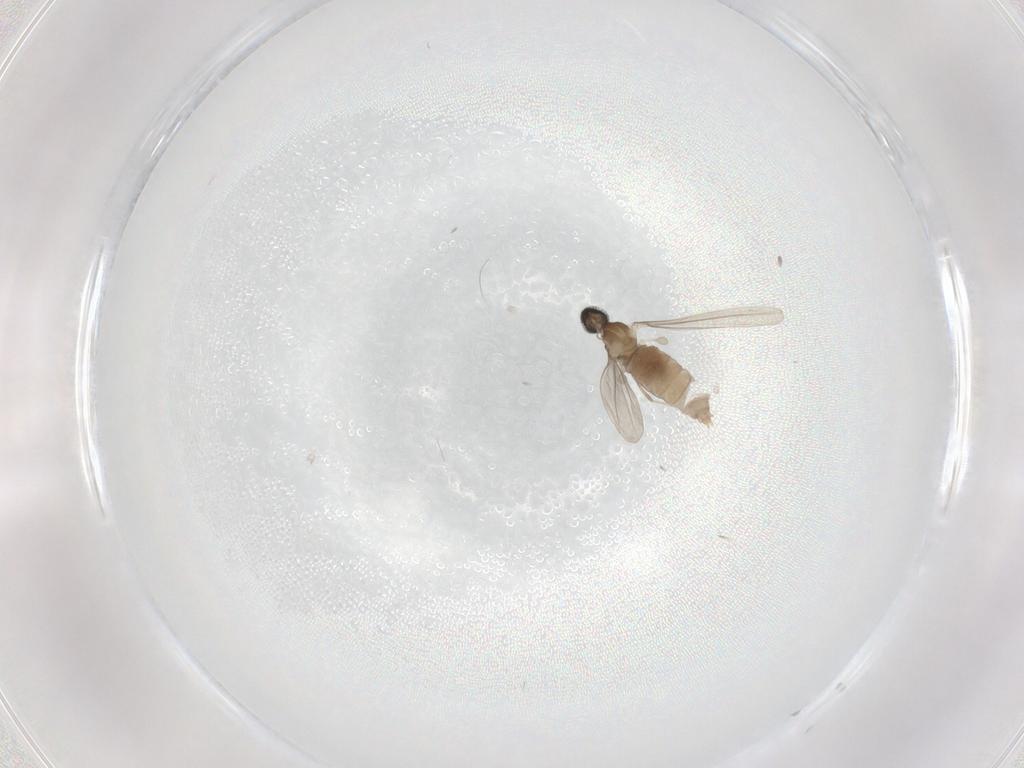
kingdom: Animalia
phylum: Arthropoda
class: Insecta
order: Diptera
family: Cecidomyiidae
